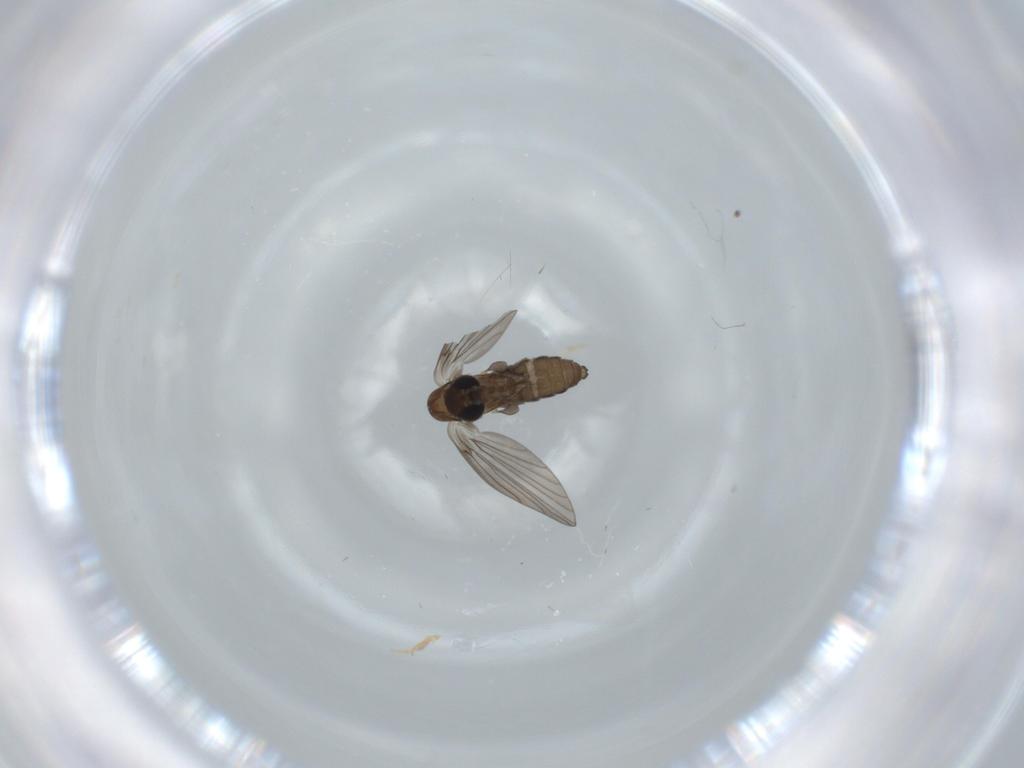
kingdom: Animalia
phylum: Arthropoda
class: Insecta
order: Diptera
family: Psychodidae
